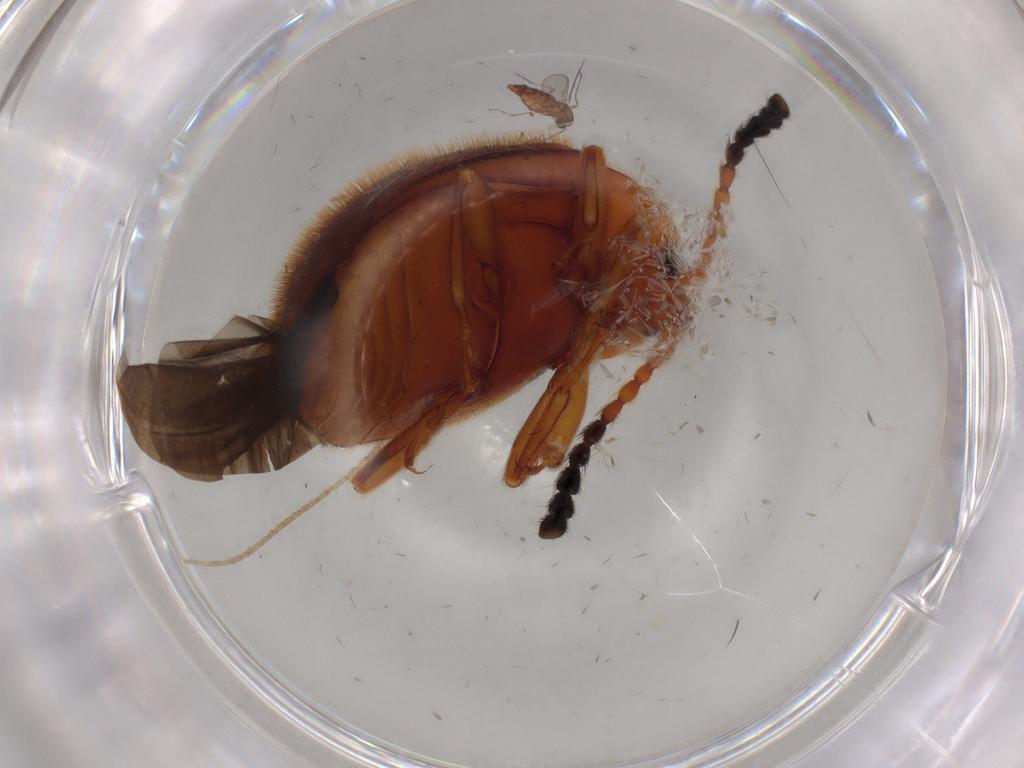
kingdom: Animalia
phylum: Arthropoda
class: Insecta
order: Coleoptera
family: Endomychidae
